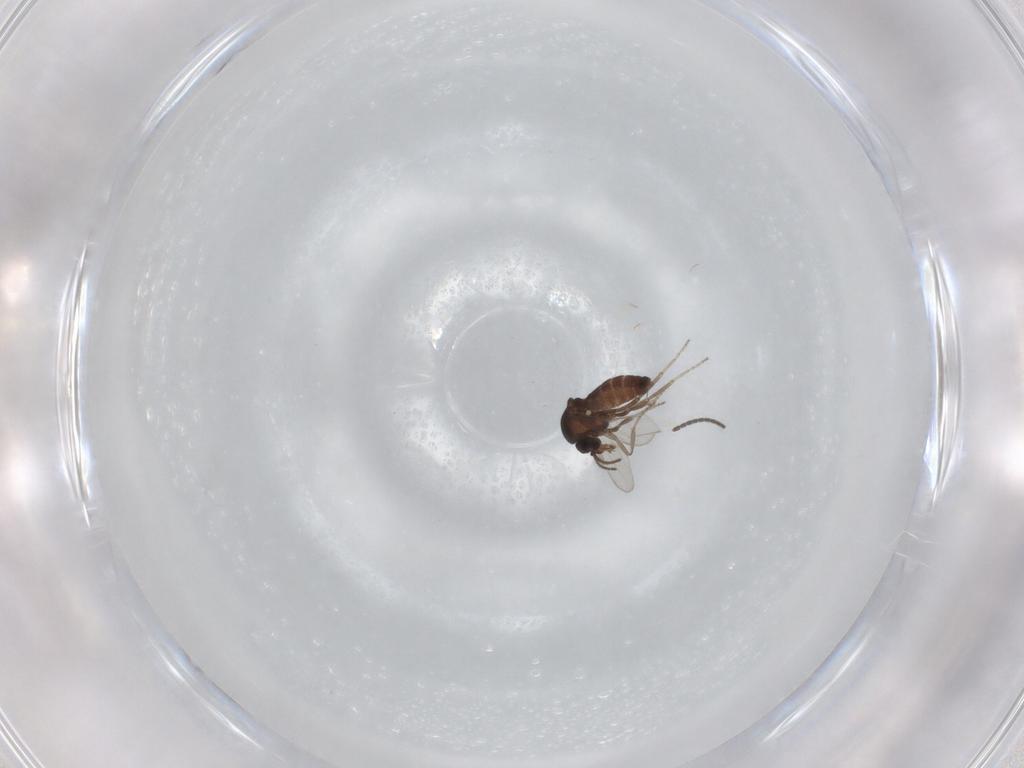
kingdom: Animalia
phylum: Arthropoda
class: Insecta
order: Diptera
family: Ceratopogonidae
